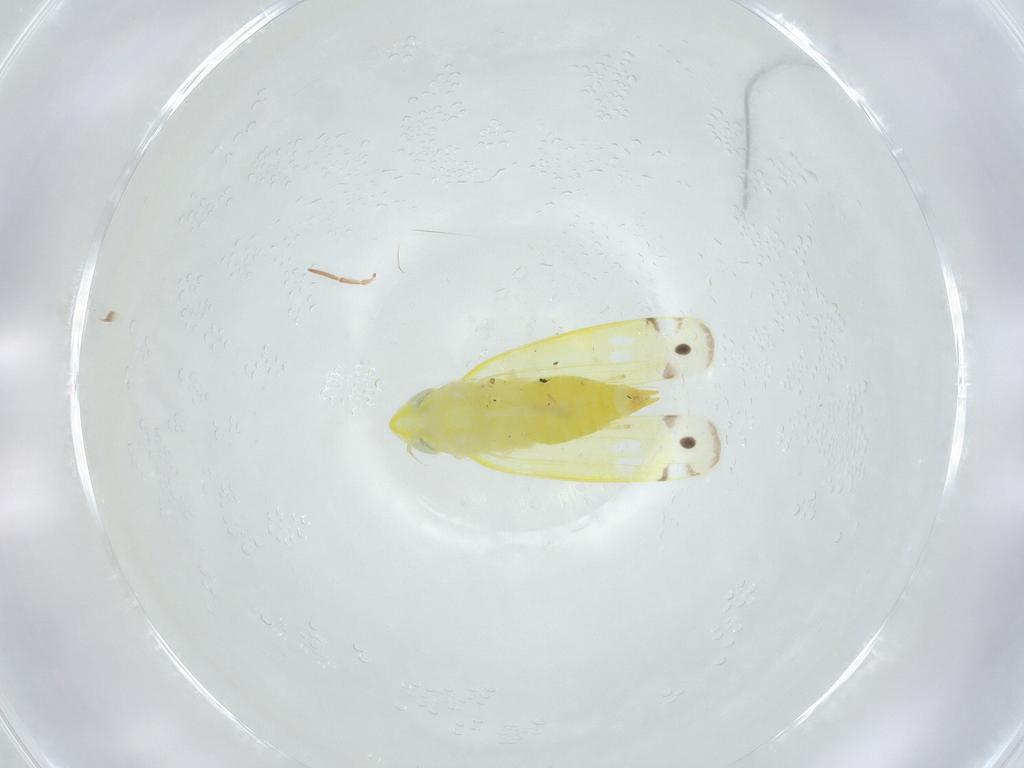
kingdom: Animalia
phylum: Arthropoda
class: Insecta
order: Hemiptera
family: Cicadellidae
